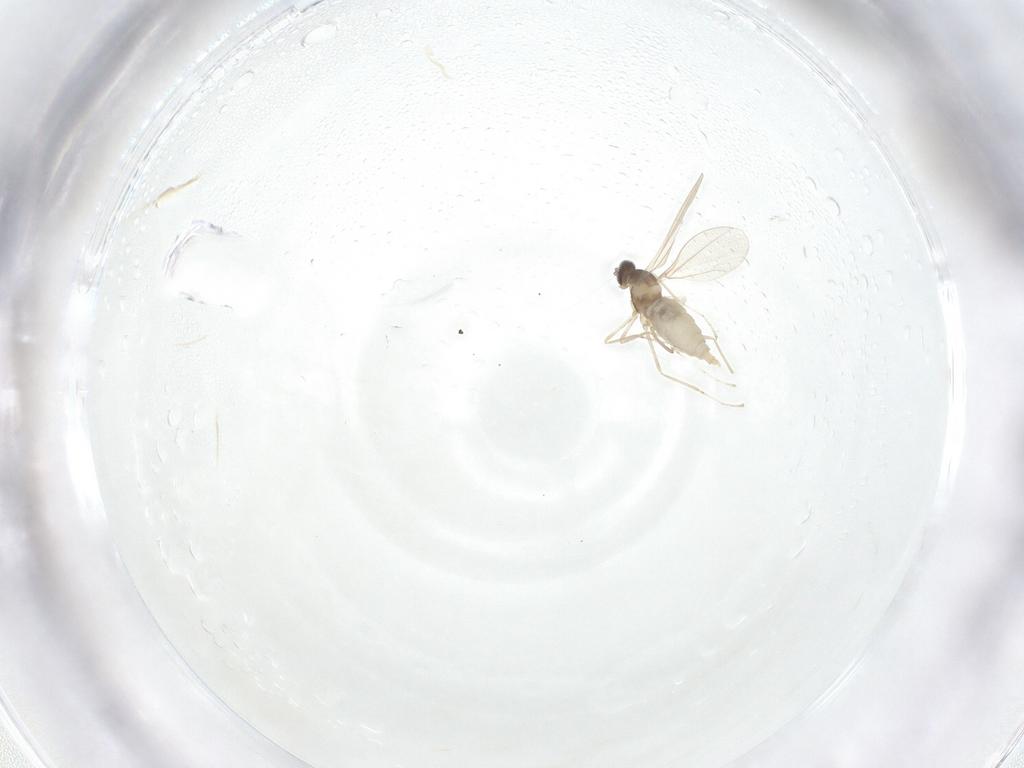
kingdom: Animalia
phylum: Arthropoda
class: Insecta
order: Diptera
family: Cecidomyiidae
